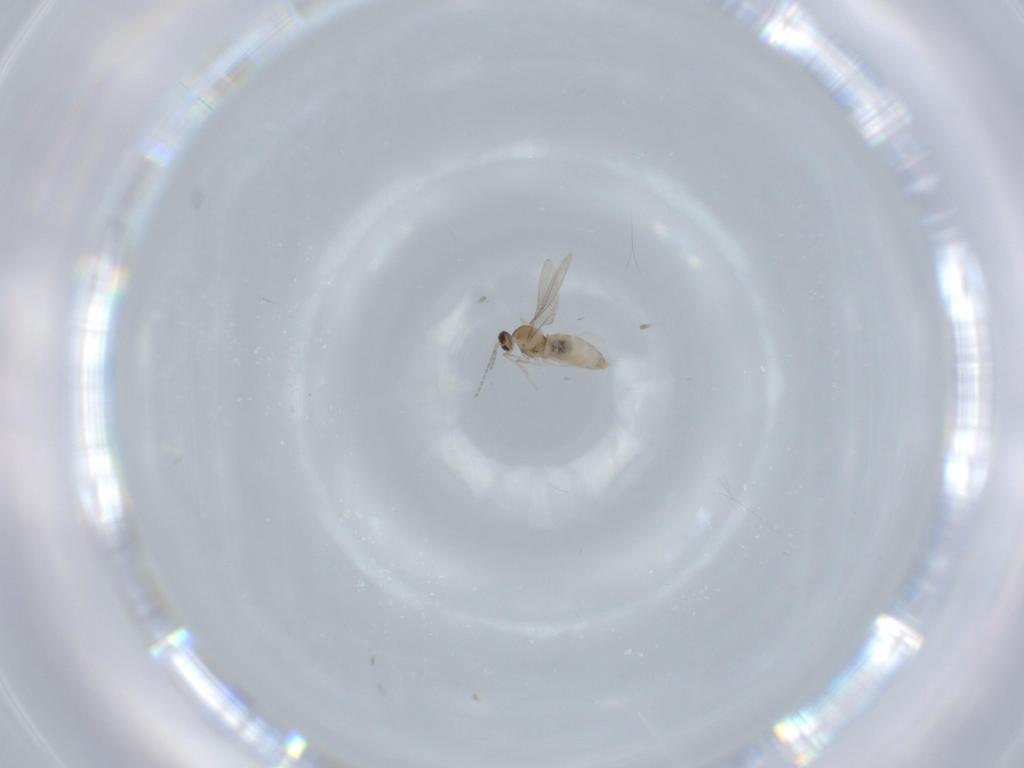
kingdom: Animalia
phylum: Arthropoda
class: Insecta
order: Diptera
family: Cecidomyiidae
